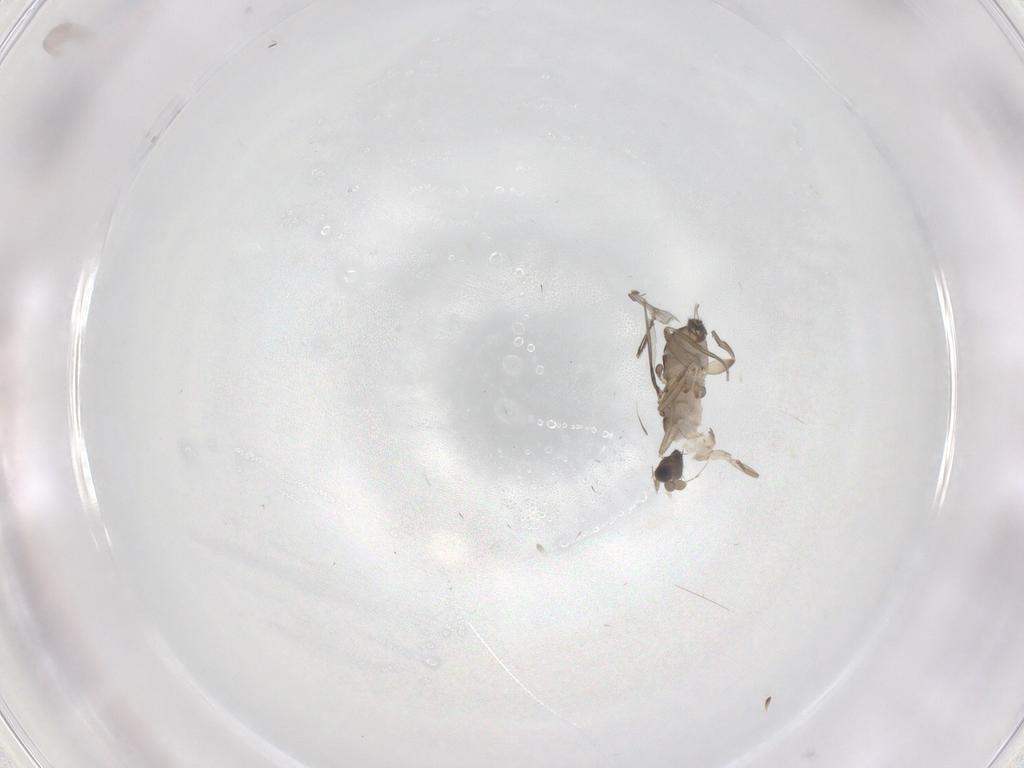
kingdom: Animalia
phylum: Arthropoda
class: Insecta
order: Diptera
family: Phoridae
